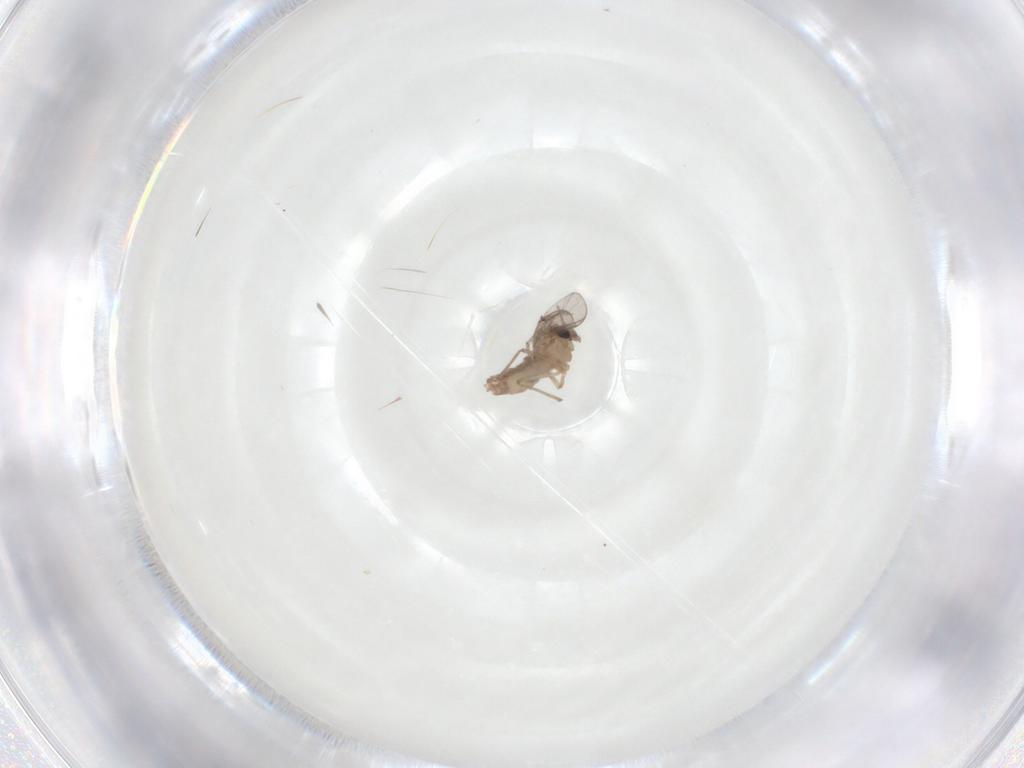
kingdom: Animalia
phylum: Arthropoda
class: Insecta
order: Diptera
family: Chironomidae
